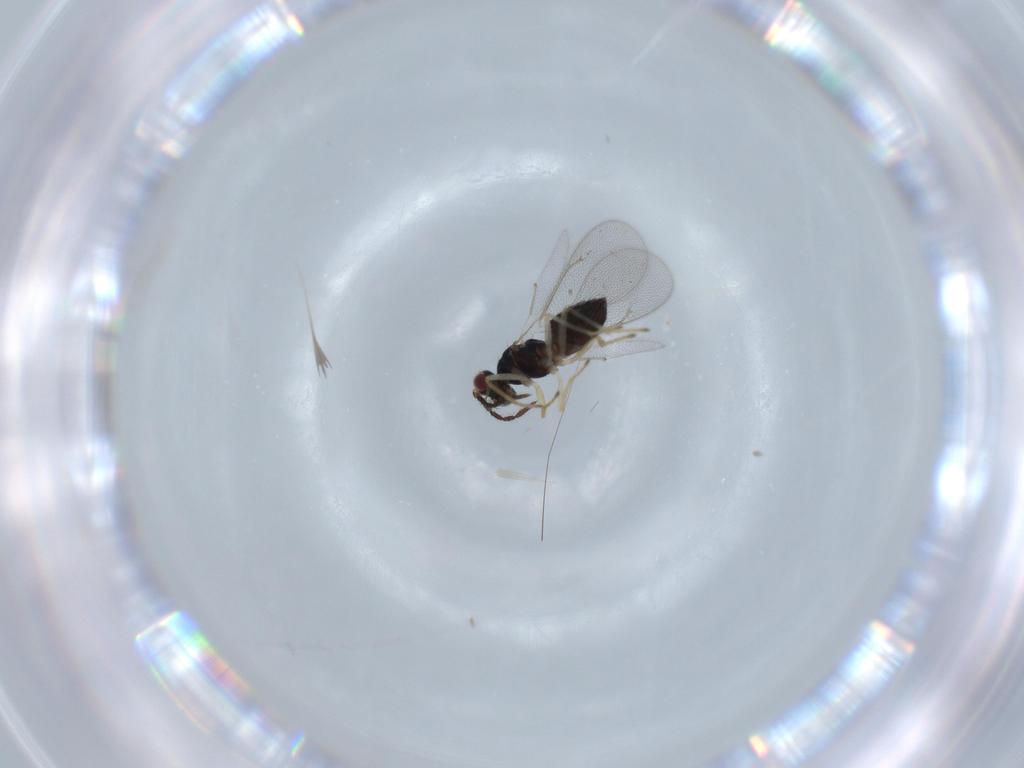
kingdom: Animalia
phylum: Arthropoda
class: Insecta
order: Hymenoptera
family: Eulophidae
